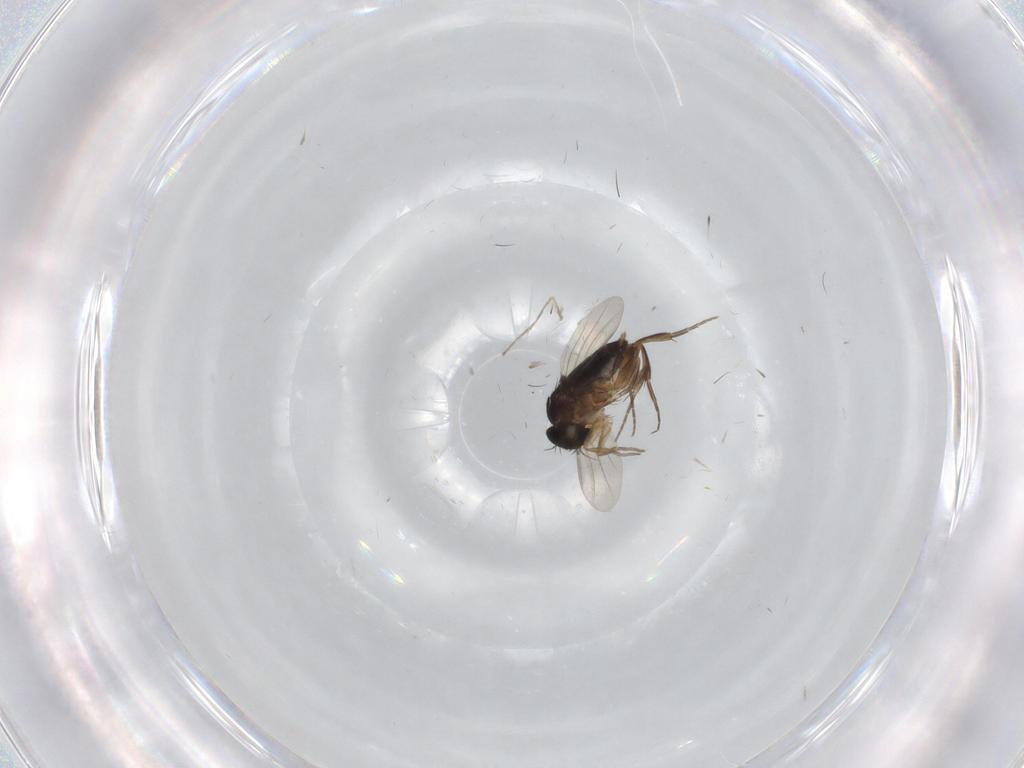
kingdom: Animalia
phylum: Arthropoda
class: Insecta
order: Diptera
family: Phoridae
